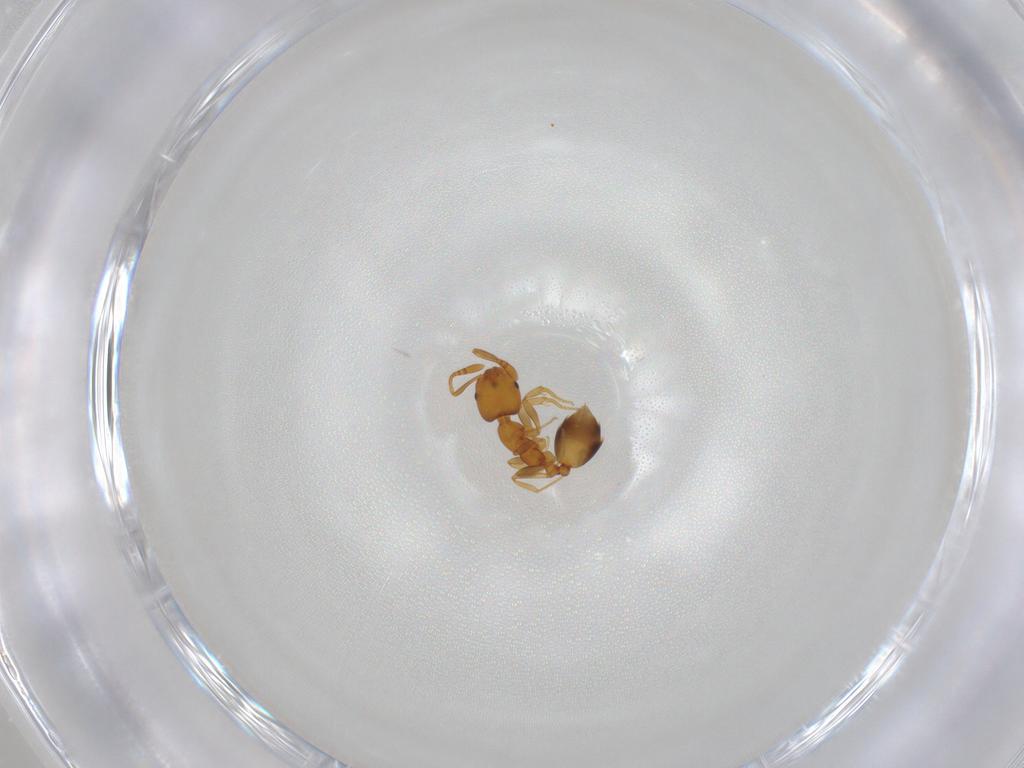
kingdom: Animalia
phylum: Arthropoda
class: Insecta
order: Hymenoptera
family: Formicidae
